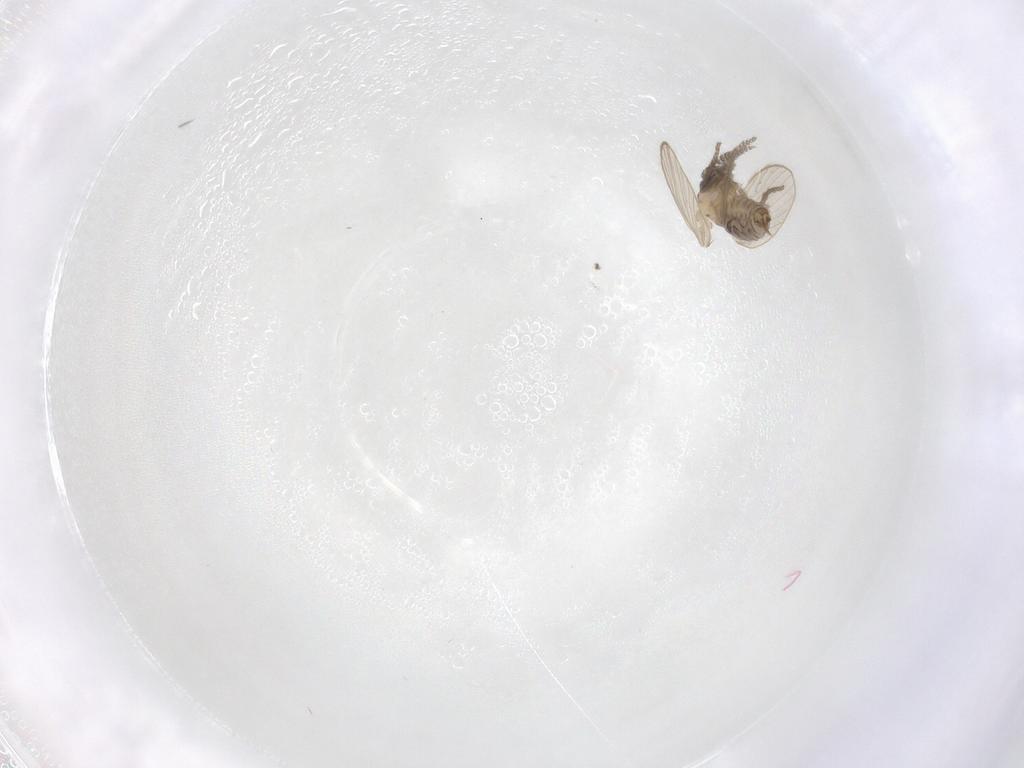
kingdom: Animalia
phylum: Arthropoda
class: Insecta
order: Diptera
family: Psychodidae
